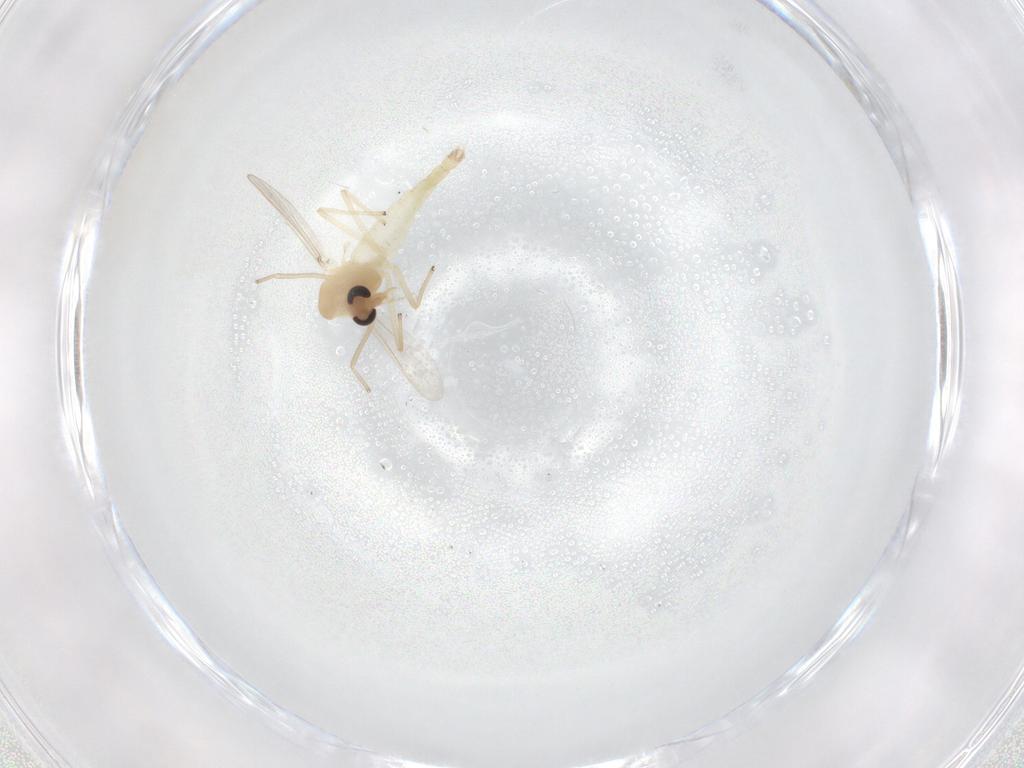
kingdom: Animalia
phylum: Arthropoda
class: Insecta
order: Diptera
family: Chironomidae
